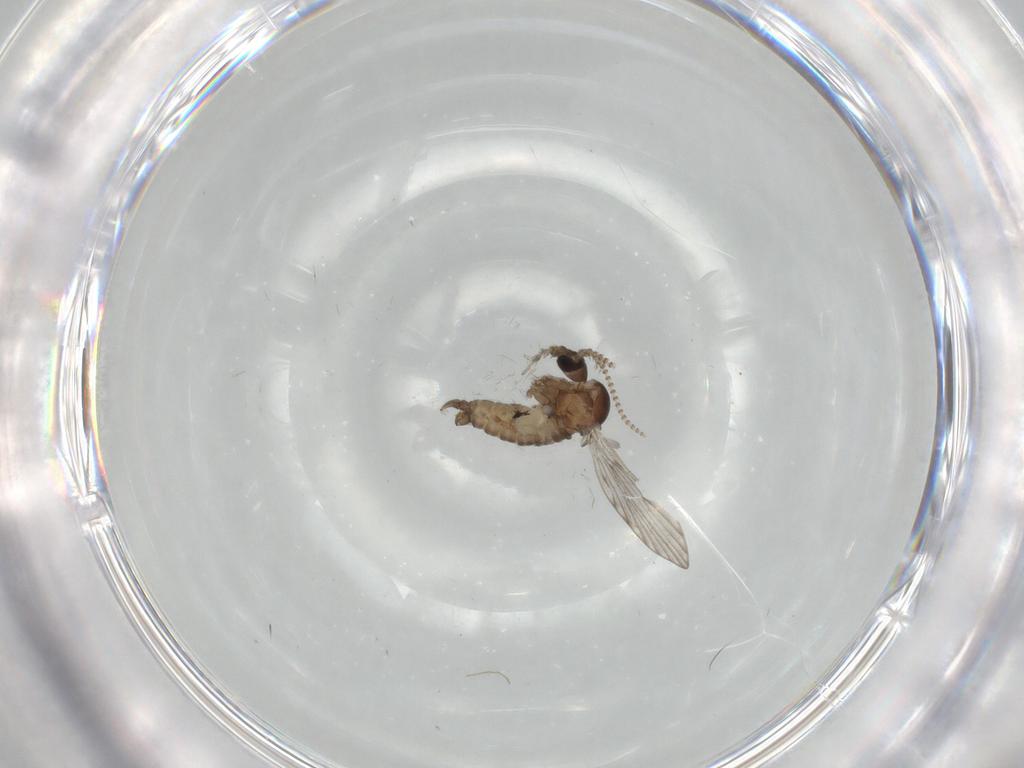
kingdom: Animalia
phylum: Arthropoda
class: Insecta
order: Diptera
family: Psychodidae
